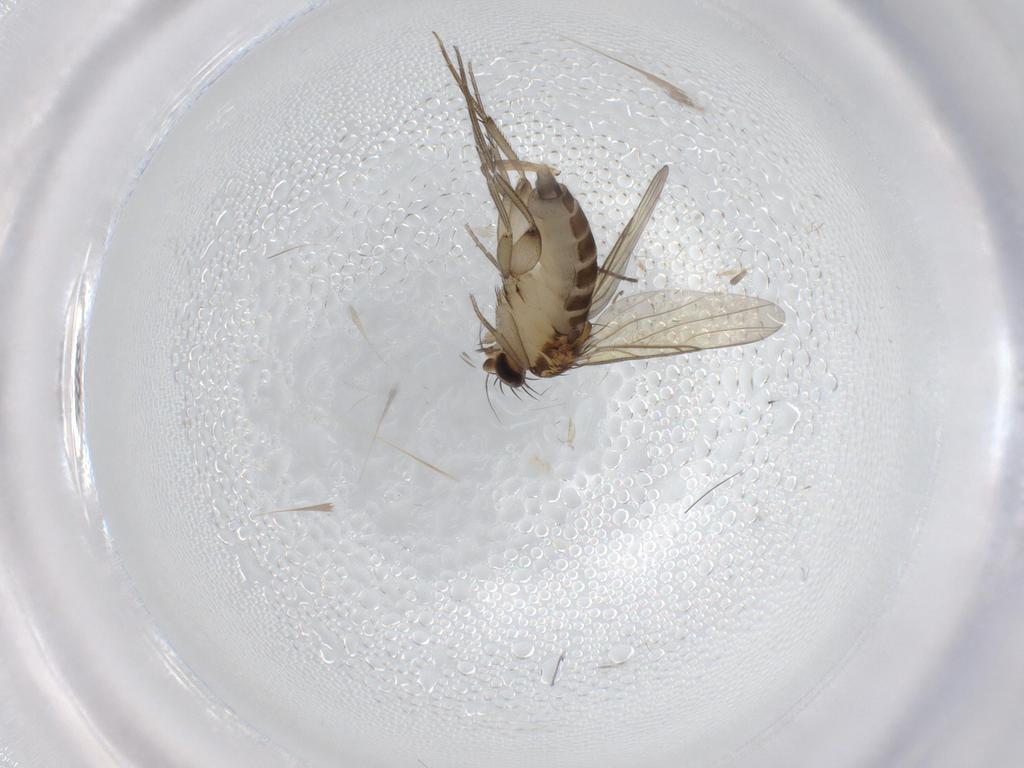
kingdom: Animalia
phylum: Arthropoda
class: Insecta
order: Diptera
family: Phoridae
